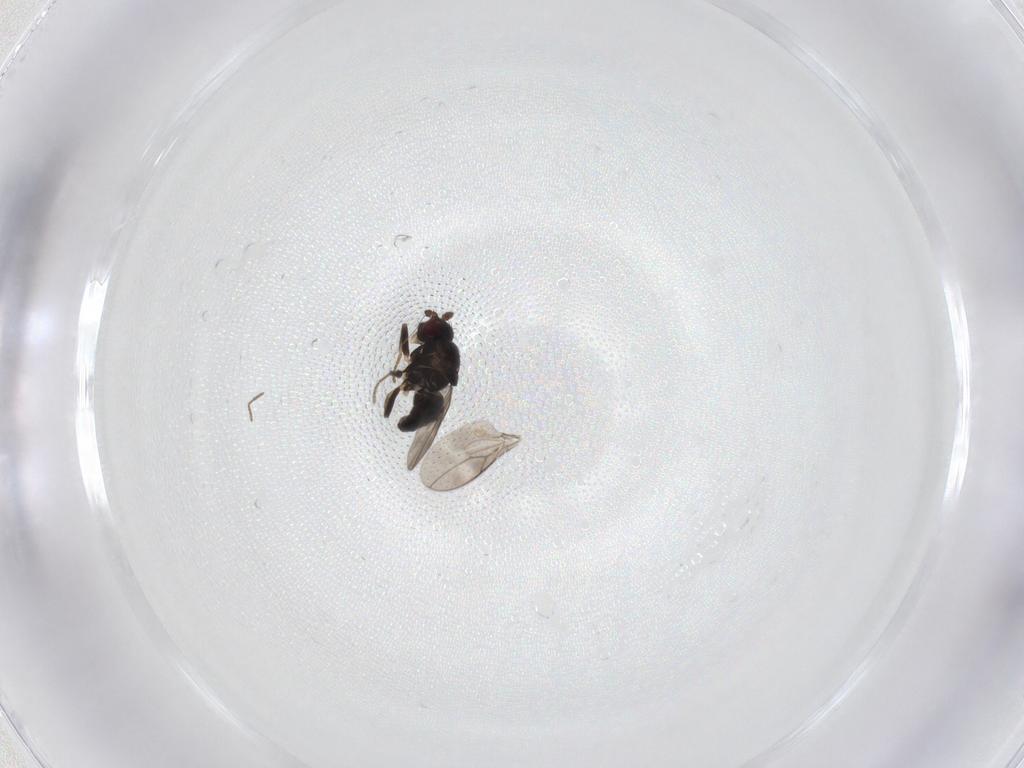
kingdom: Animalia
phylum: Arthropoda
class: Insecta
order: Diptera
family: Sphaeroceridae
